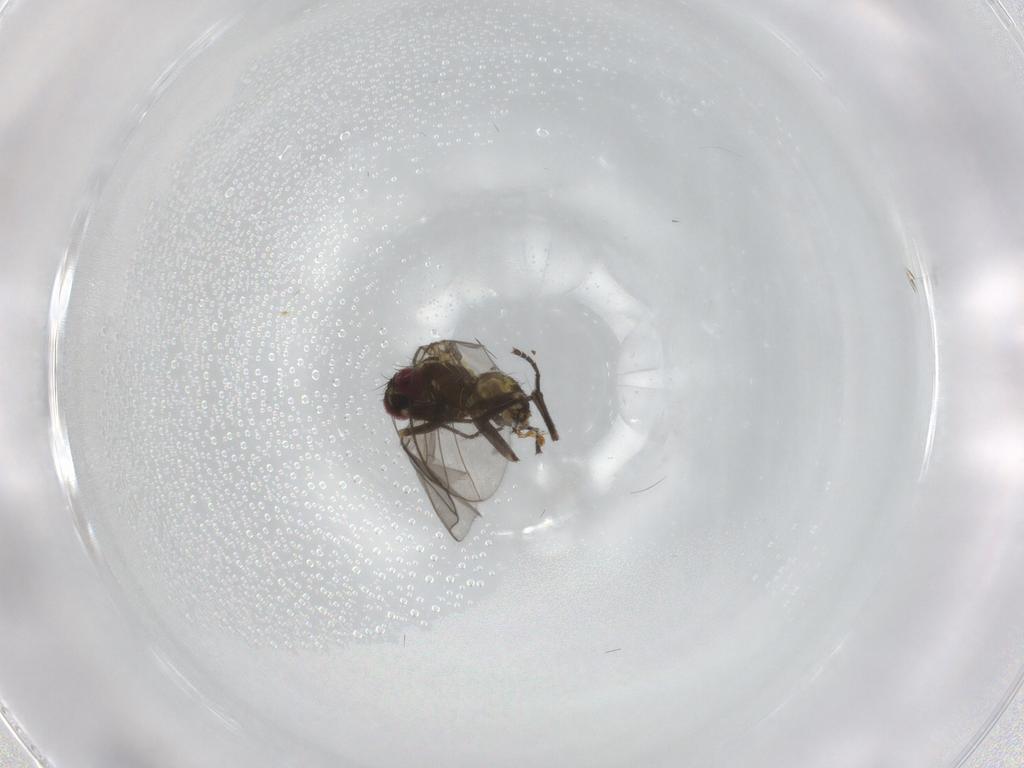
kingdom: Animalia
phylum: Arthropoda
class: Insecta
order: Diptera
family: Agromyzidae
